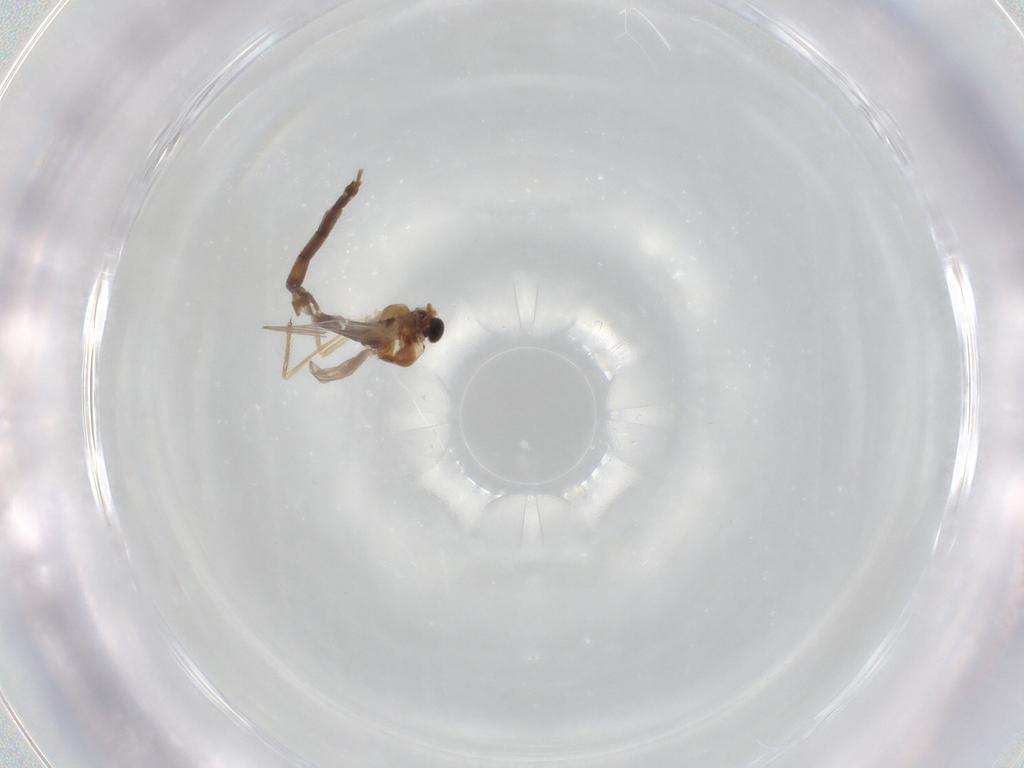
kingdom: Animalia
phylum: Arthropoda
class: Insecta
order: Diptera
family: Chironomidae
